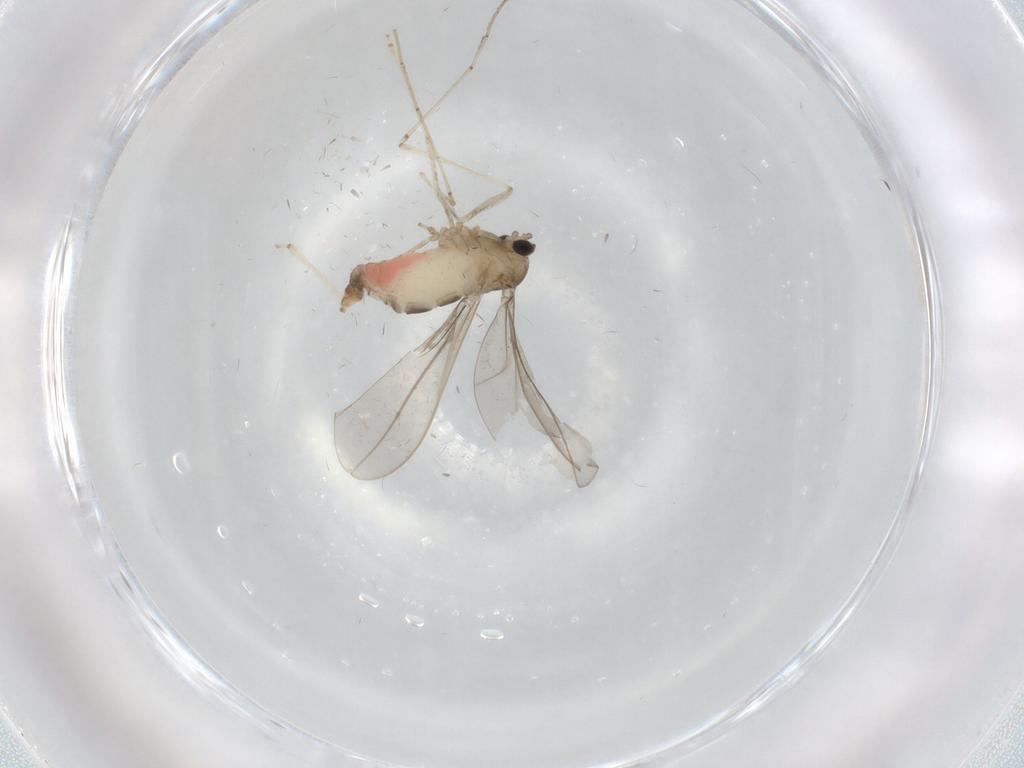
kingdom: Animalia
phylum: Arthropoda
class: Insecta
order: Diptera
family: Cecidomyiidae
